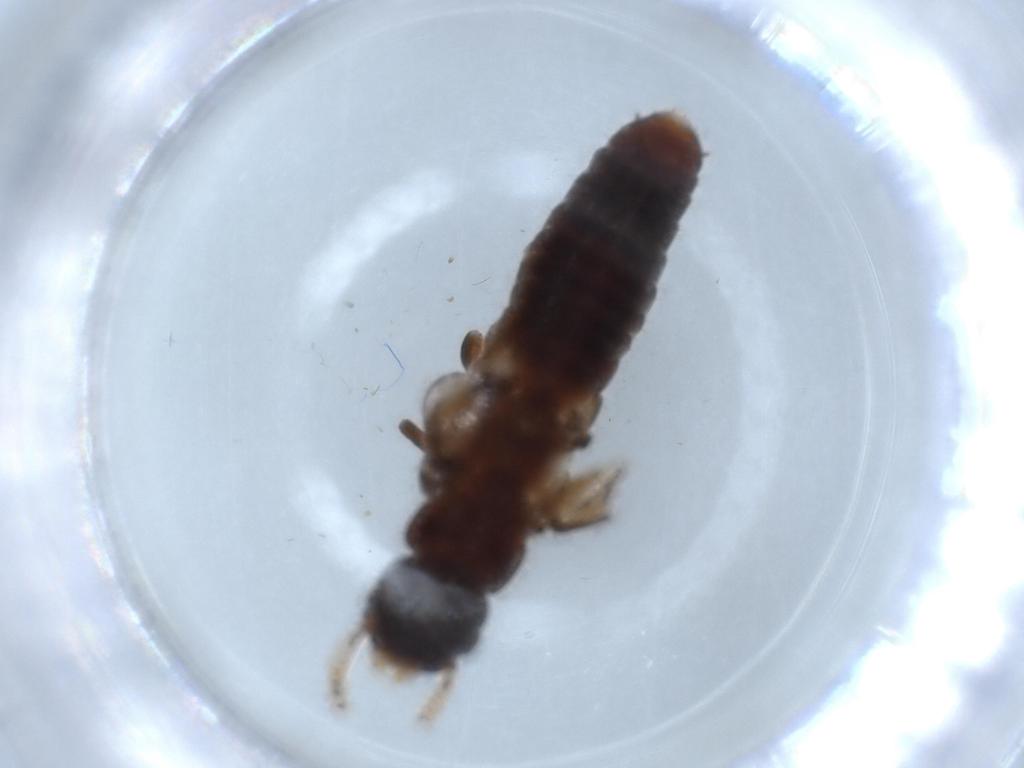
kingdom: Animalia
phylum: Arthropoda
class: Insecta
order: Blattodea
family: Kalotermitidae
